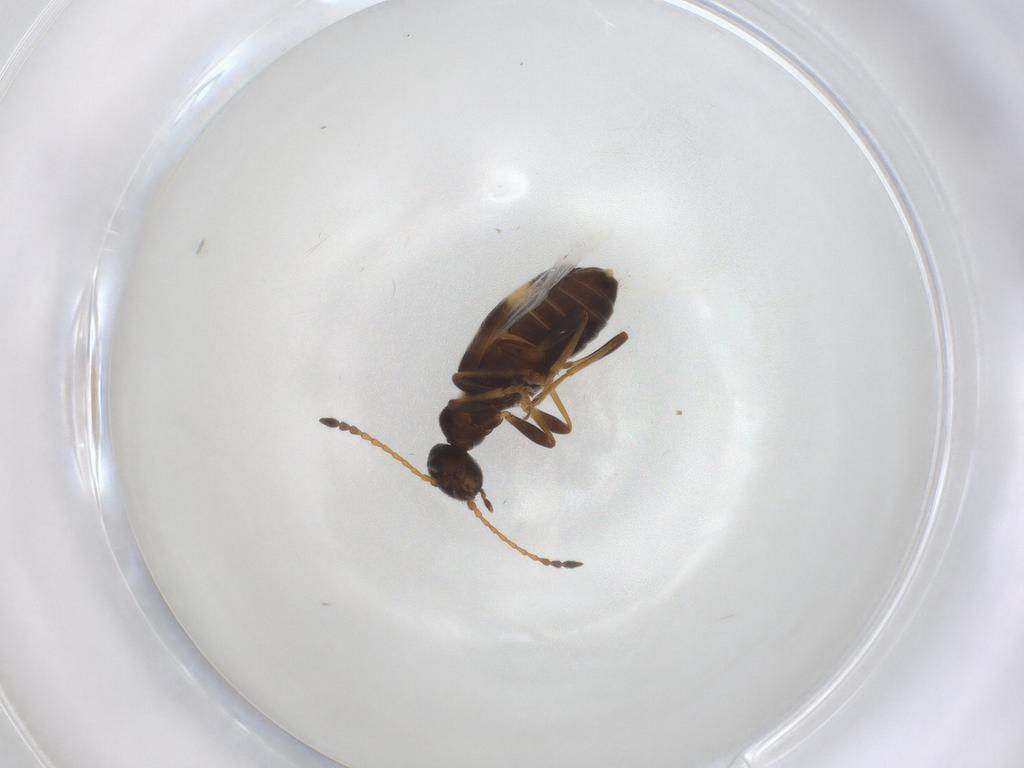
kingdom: Animalia
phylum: Arthropoda
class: Insecta
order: Coleoptera
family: Anthicidae
